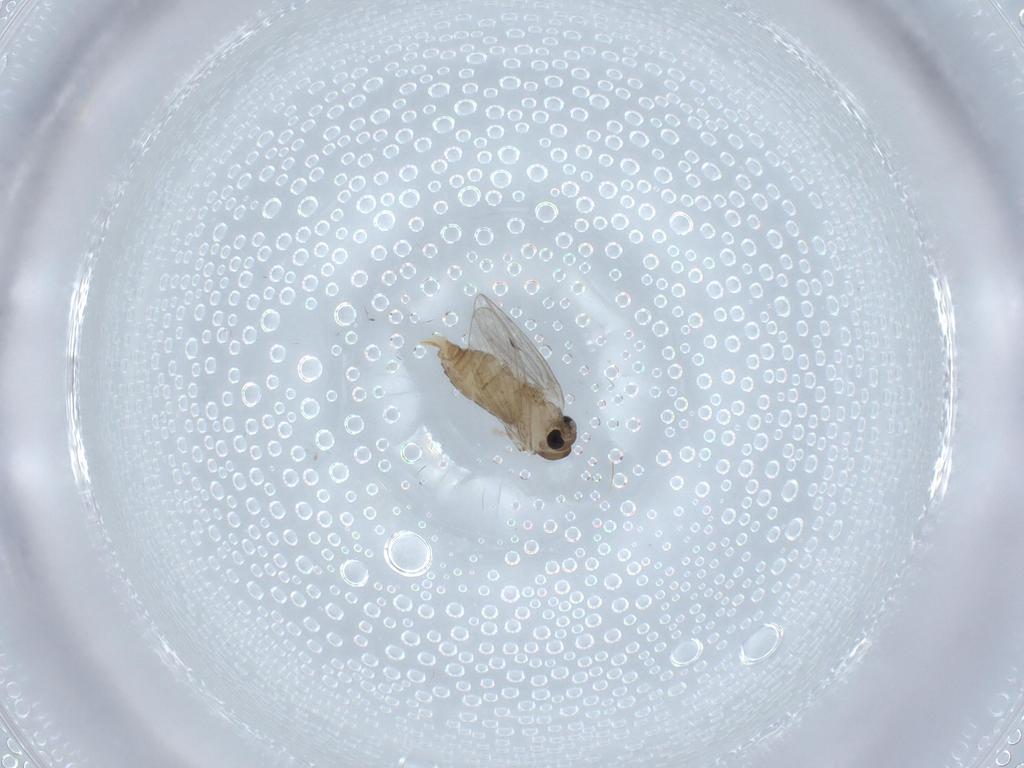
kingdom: Animalia
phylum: Arthropoda
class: Insecta
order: Diptera
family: Psychodidae
